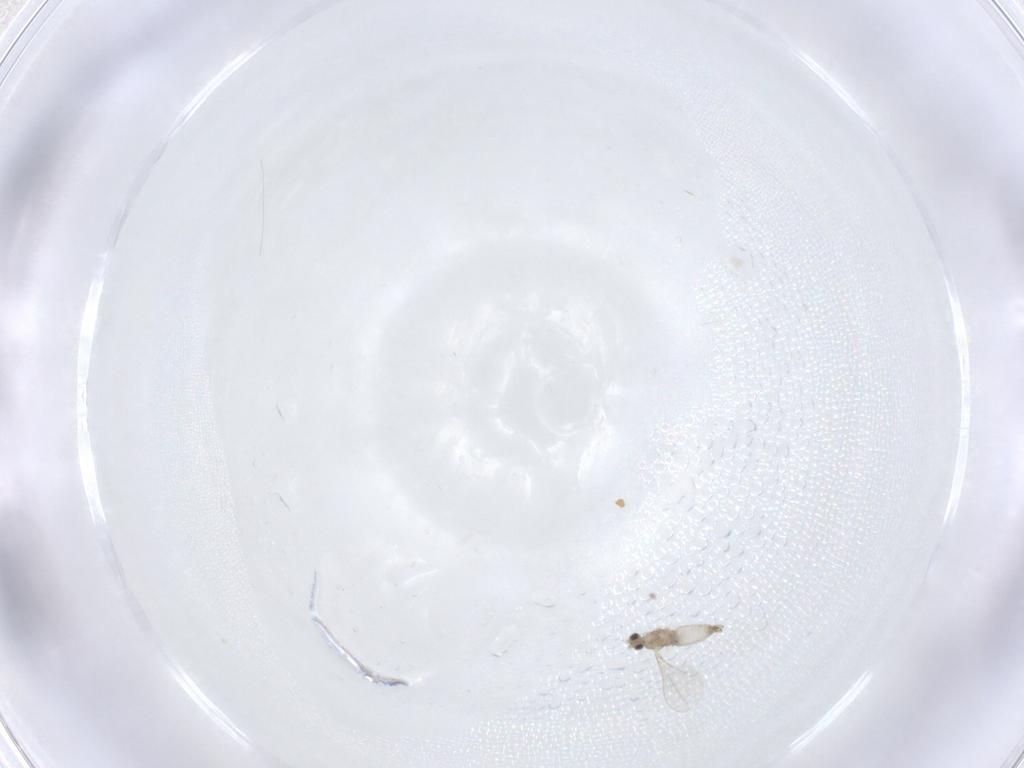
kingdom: Animalia
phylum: Arthropoda
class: Insecta
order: Diptera
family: Cecidomyiidae
